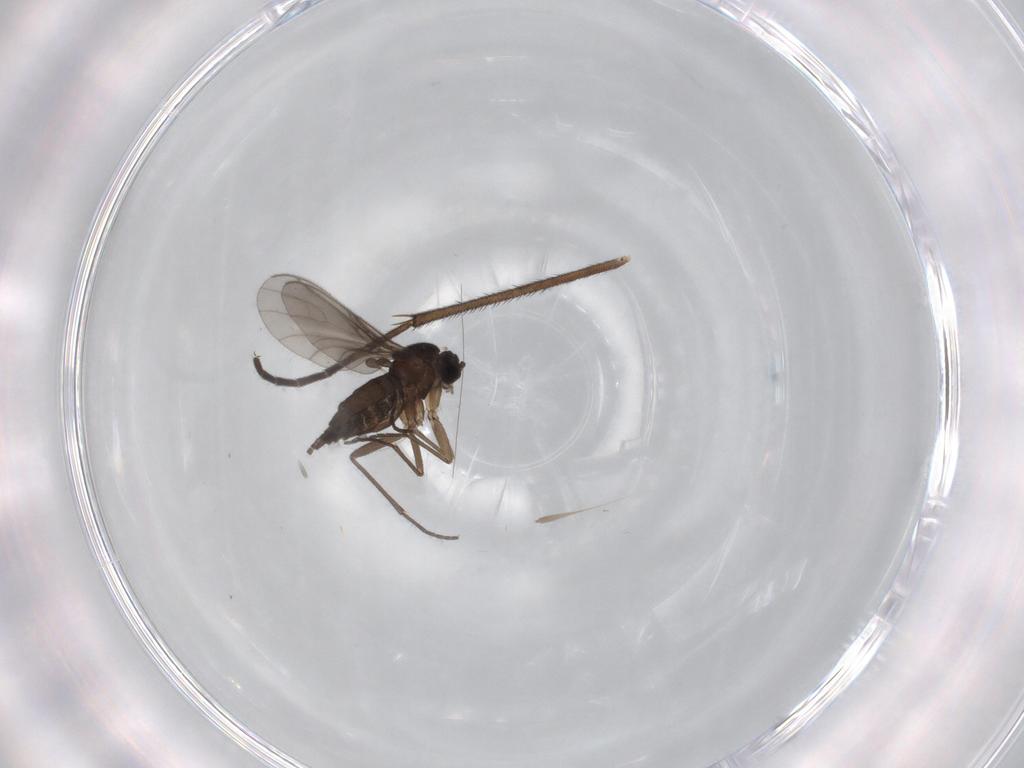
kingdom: Animalia
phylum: Arthropoda
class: Insecta
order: Diptera
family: Sciaridae
